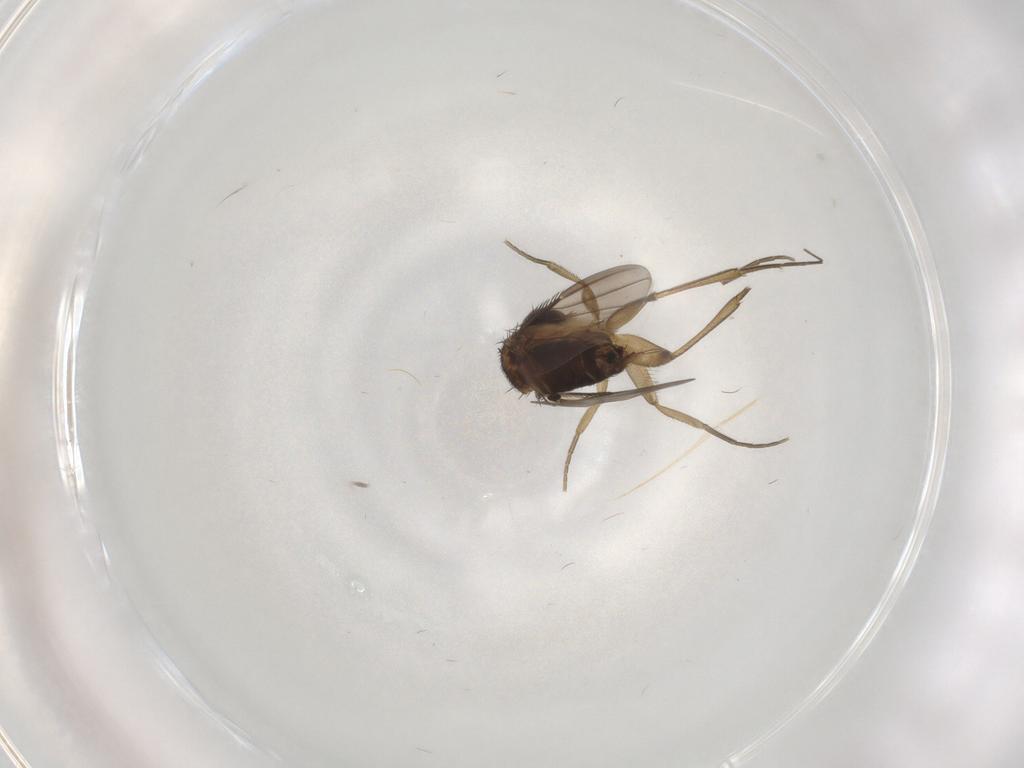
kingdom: Animalia
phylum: Arthropoda
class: Insecta
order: Diptera
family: Phoridae
